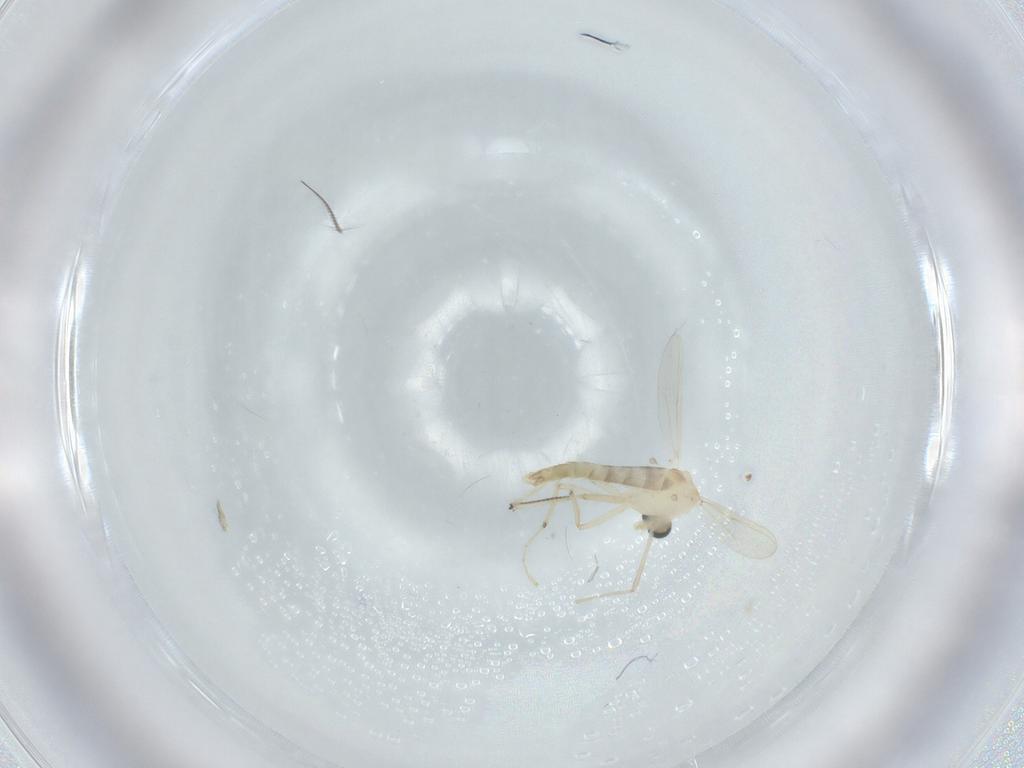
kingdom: Animalia
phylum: Arthropoda
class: Insecta
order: Diptera
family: Chironomidae
